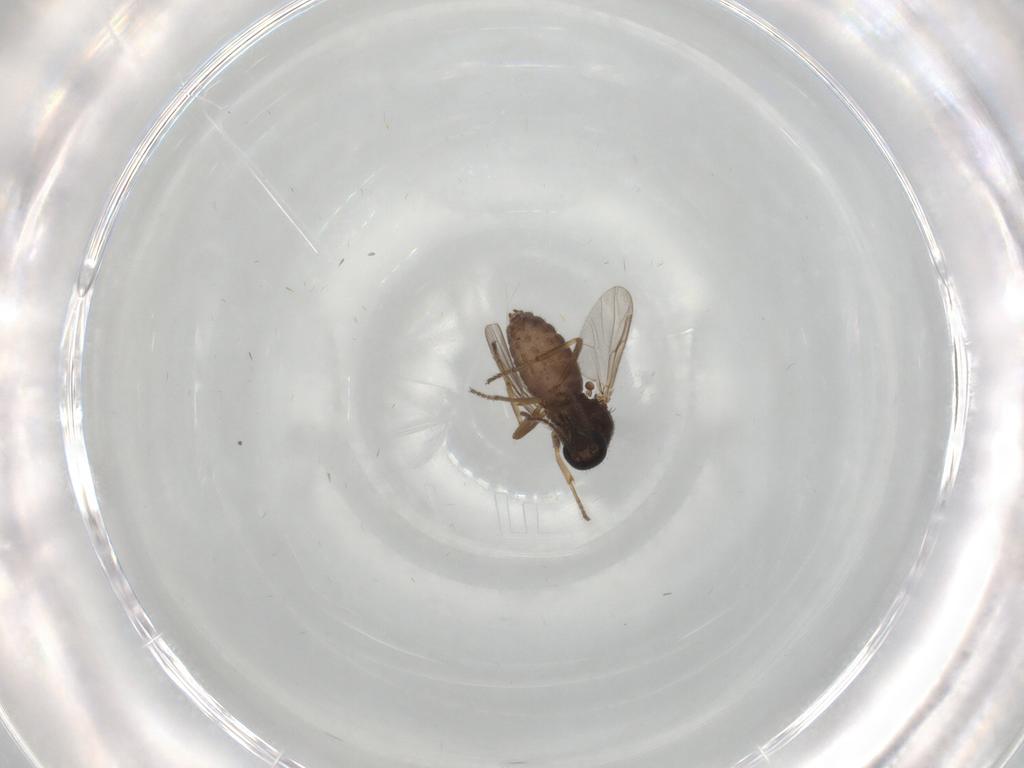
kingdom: Animalia
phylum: Arthropoda
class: Insecta
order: Diptera
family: Ceratopogonidae
